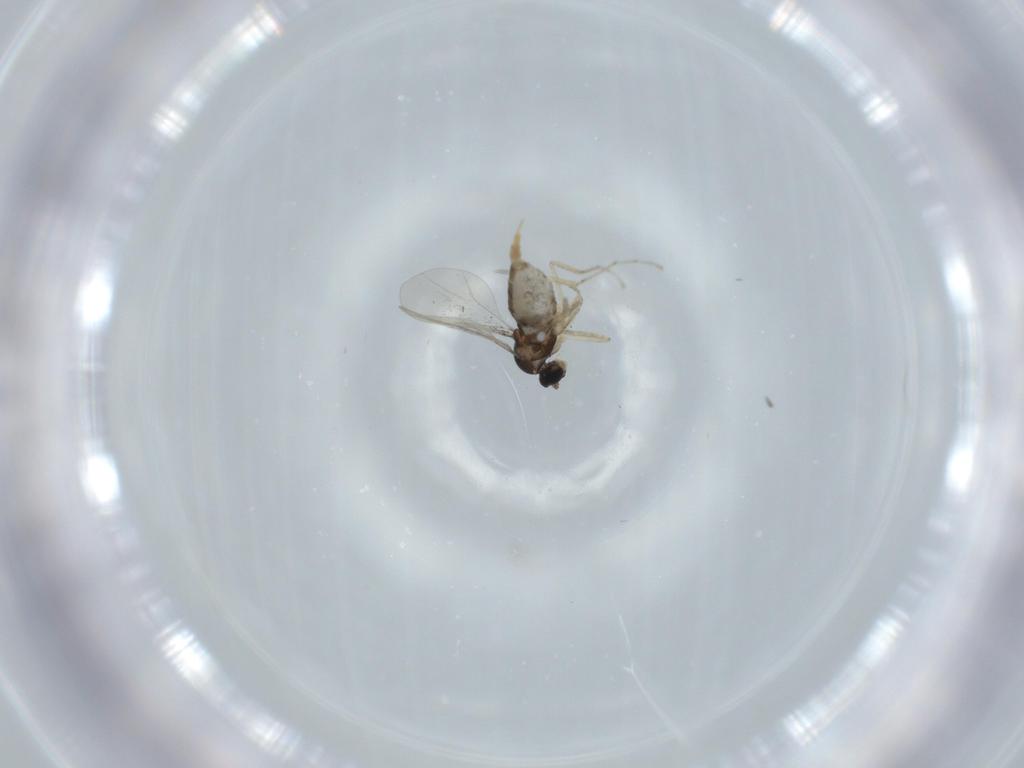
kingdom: Animalia
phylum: Arthropoda
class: Insecta
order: Diptera
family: Cecidomyiidae
